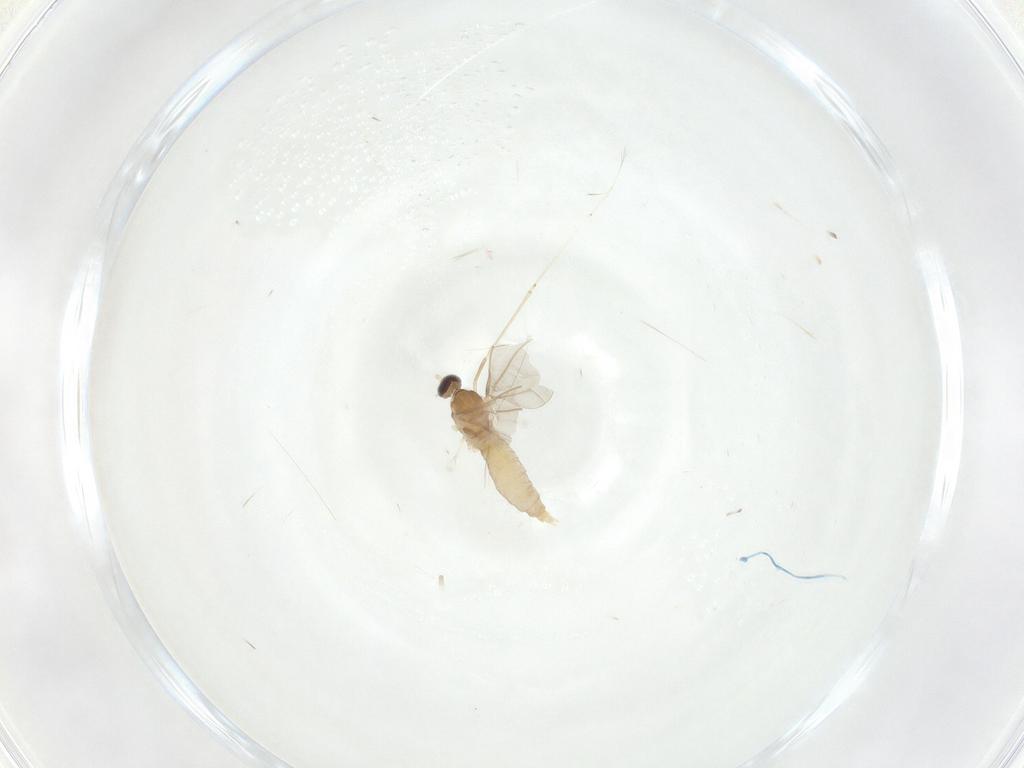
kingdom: Animalia
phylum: Arthropoda
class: Insecta
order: Diptera
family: Cecidomyiidae
